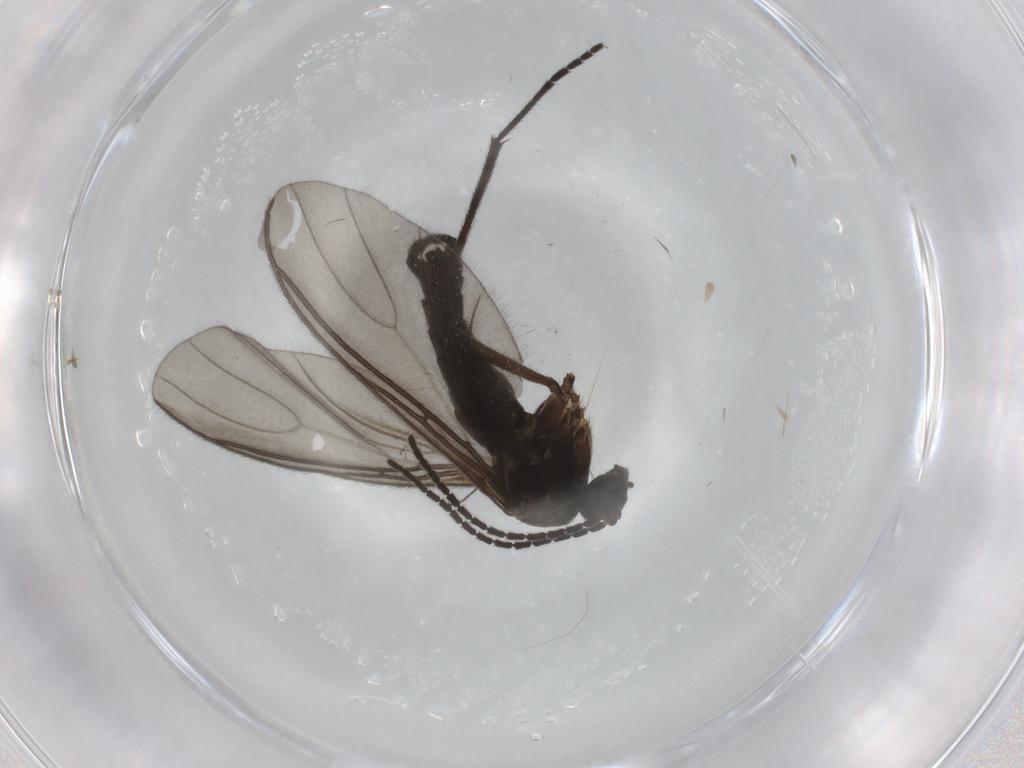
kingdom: Animalia
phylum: Arthropoda
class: Insecta
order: Diptera
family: Sciaridae
